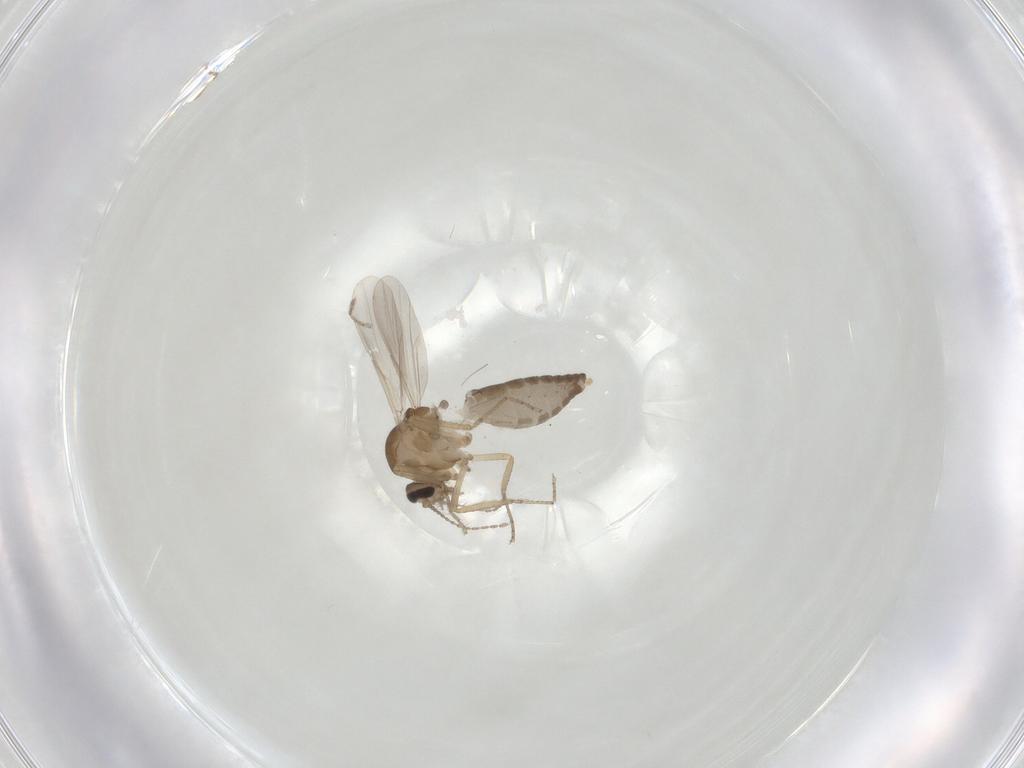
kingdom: Animalia
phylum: Arthropoda
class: Insecta
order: Diptera
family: Ceratopogonidae
